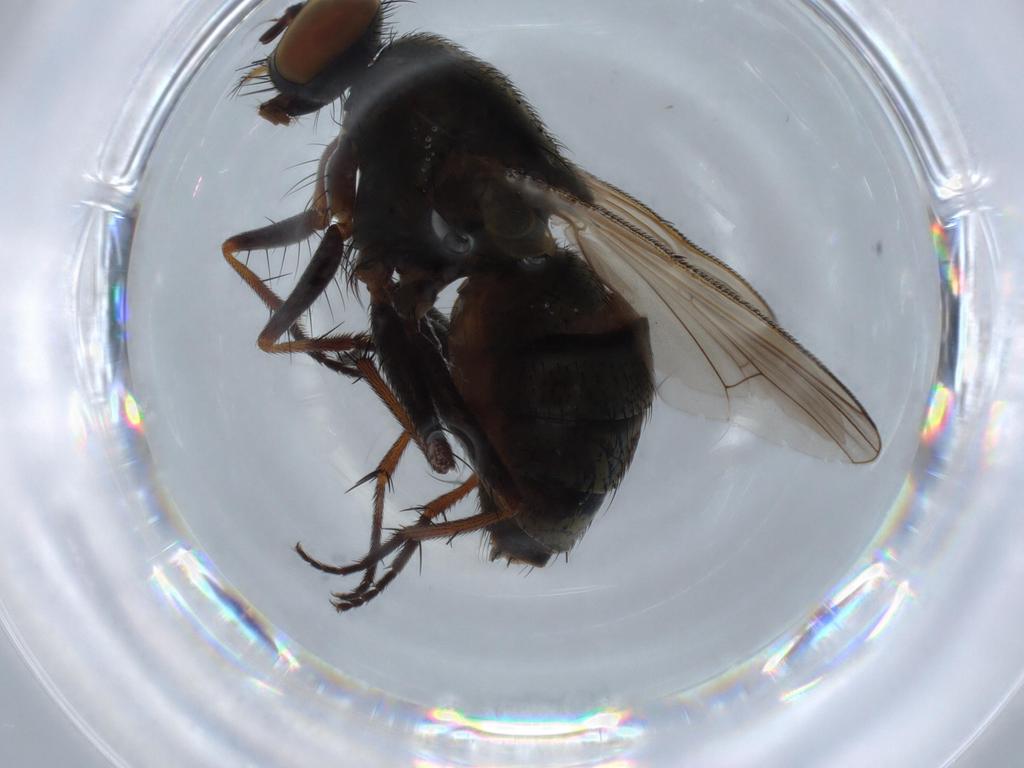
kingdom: Animalia
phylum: Arthropoda
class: Insecta
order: Diptera
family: Muscidae
